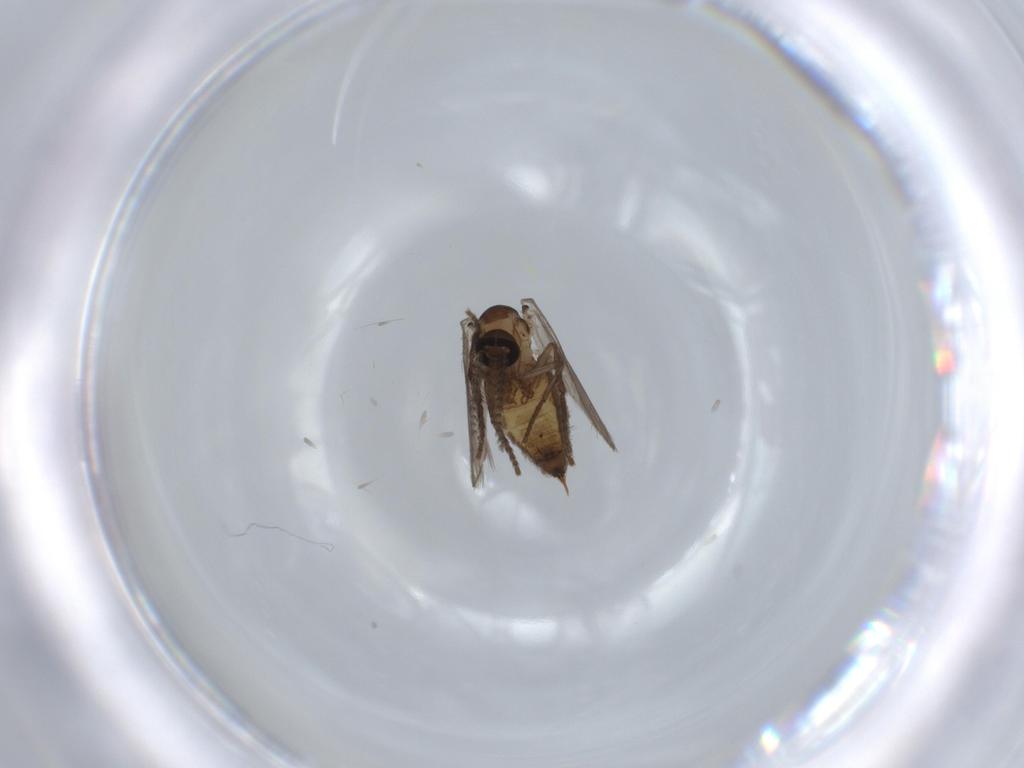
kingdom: Animalia
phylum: Arthropoda
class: Insecta
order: Diptera
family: Psychodidae
